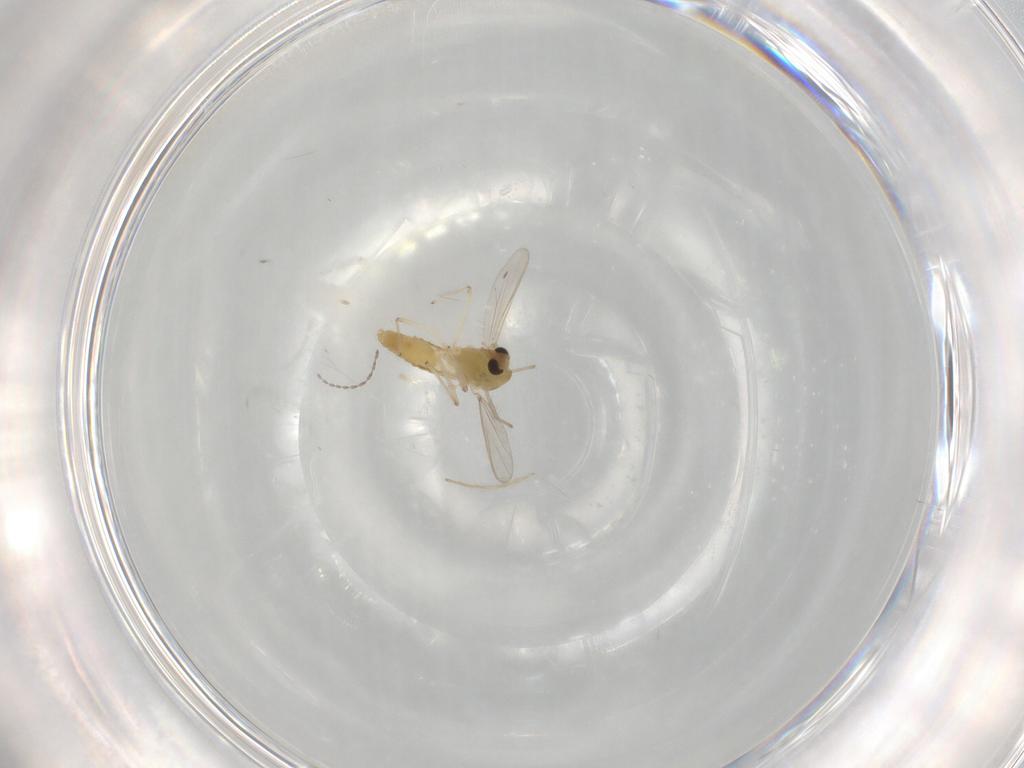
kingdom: Animalia
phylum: Arthropoda
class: Insecta
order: Diptera
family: Chironomidae
